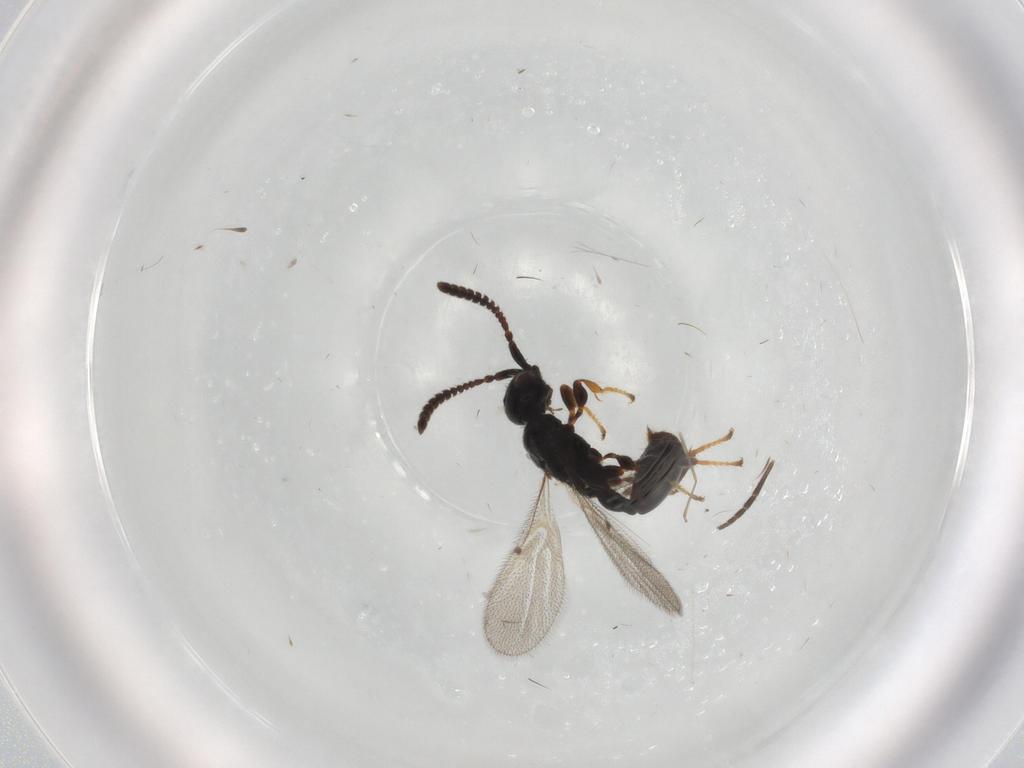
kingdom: Animalia
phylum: Arthropoda
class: Insecta
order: Hymenoptera
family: Diapriidae
